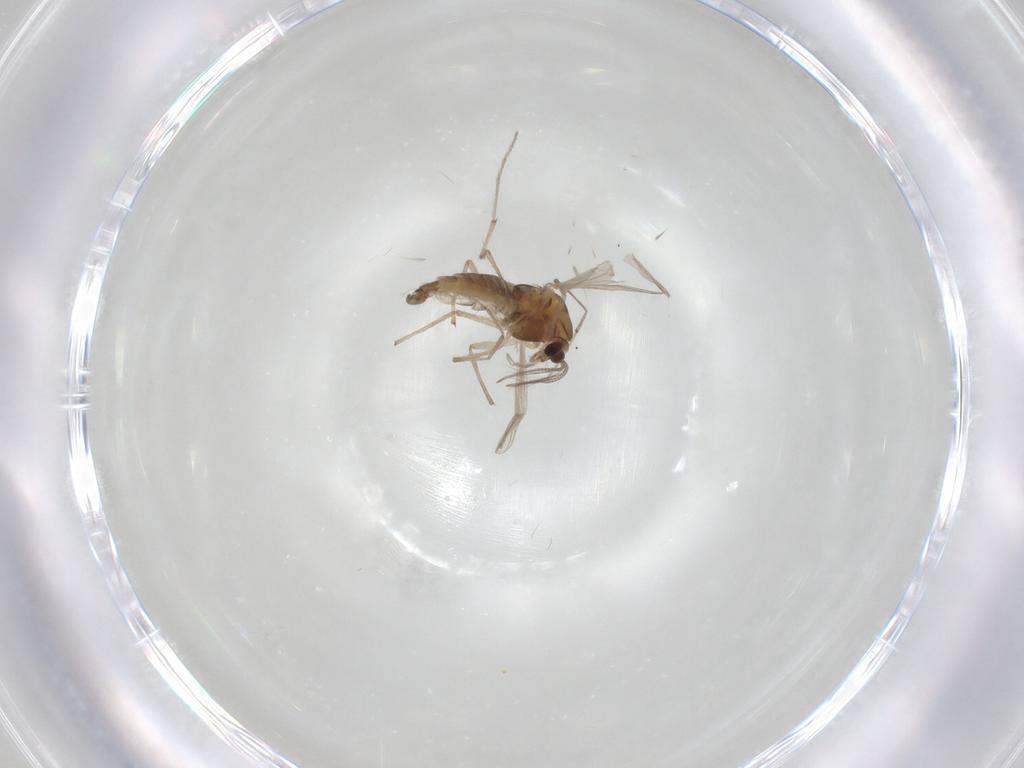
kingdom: Animalia
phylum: Arthropoda
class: Insecta
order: Diptera
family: Chironomidae
